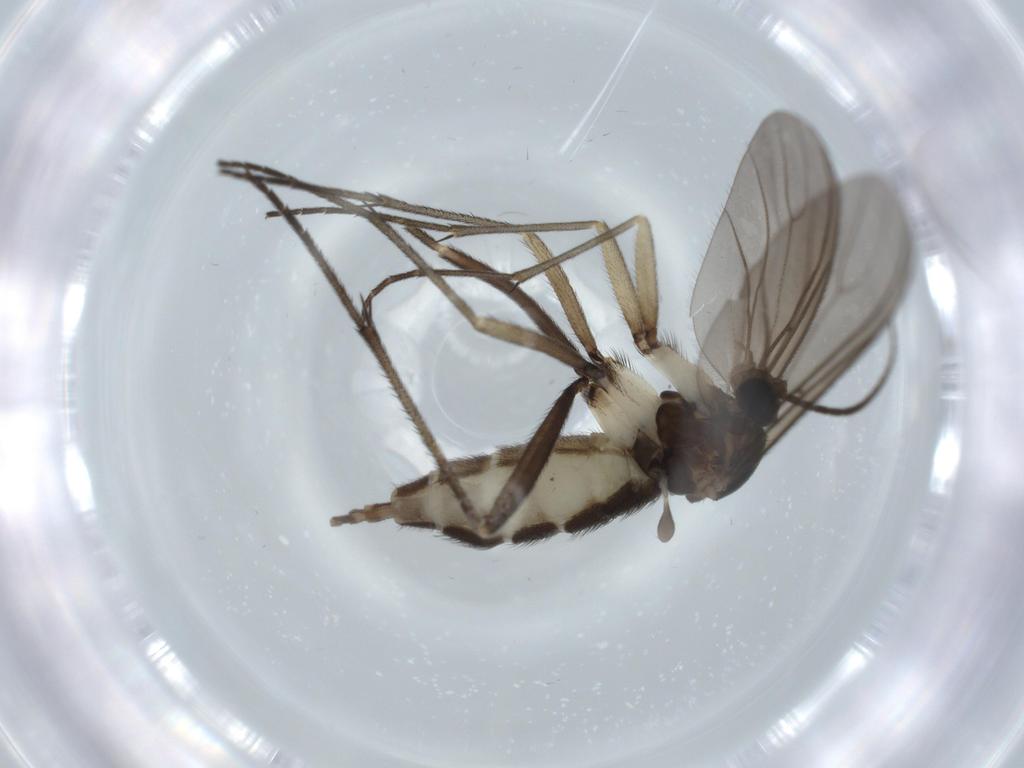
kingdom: Animalia
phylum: Arthropoda
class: Insecta
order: Diptera
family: Sciaridae
